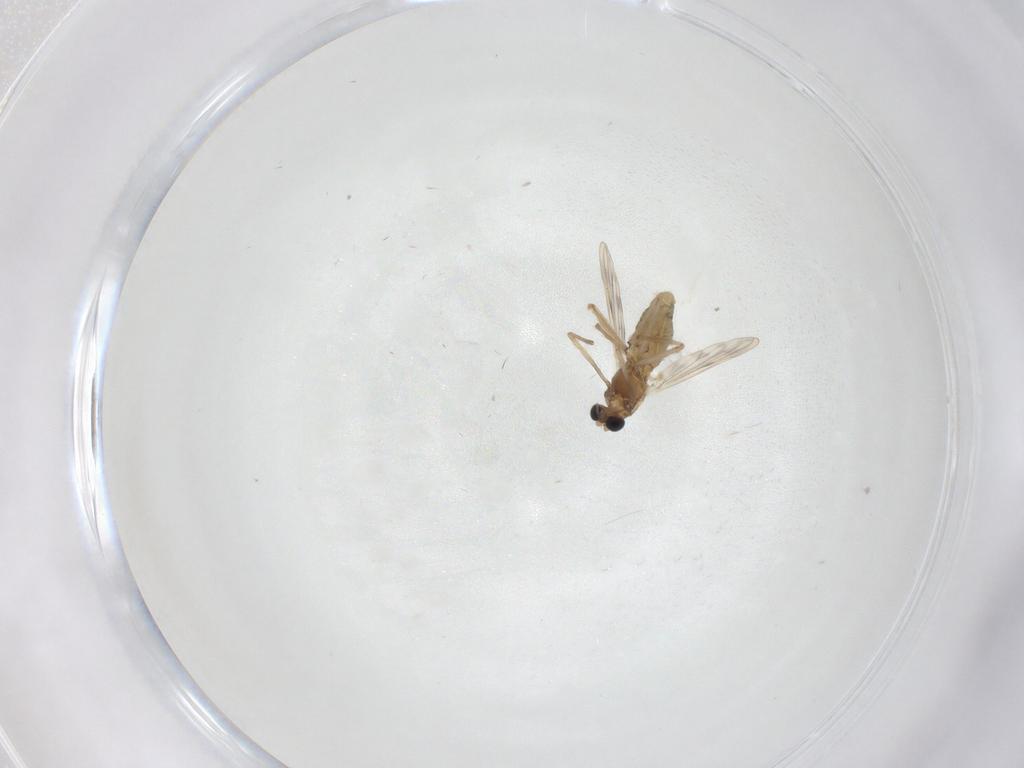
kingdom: Animalia
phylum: Arthropoda
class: Insecta
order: Diptera
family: Chironomidae
